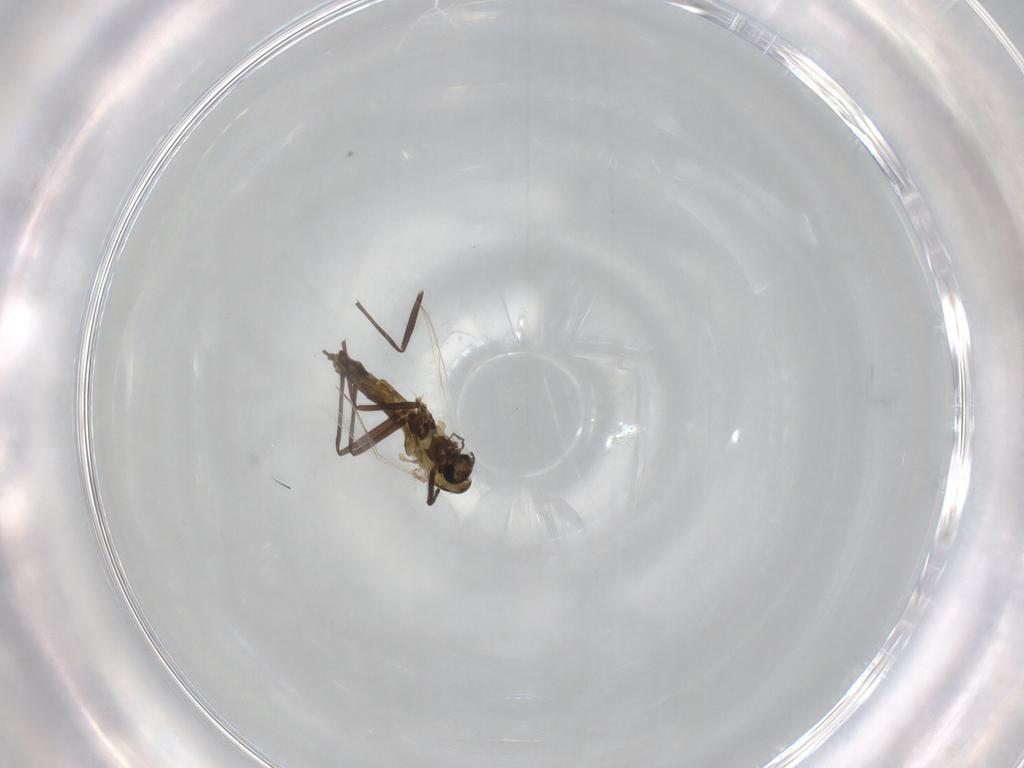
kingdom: Animalia
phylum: Arthropoda
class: Insecta
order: Diptera
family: Chironomidae
